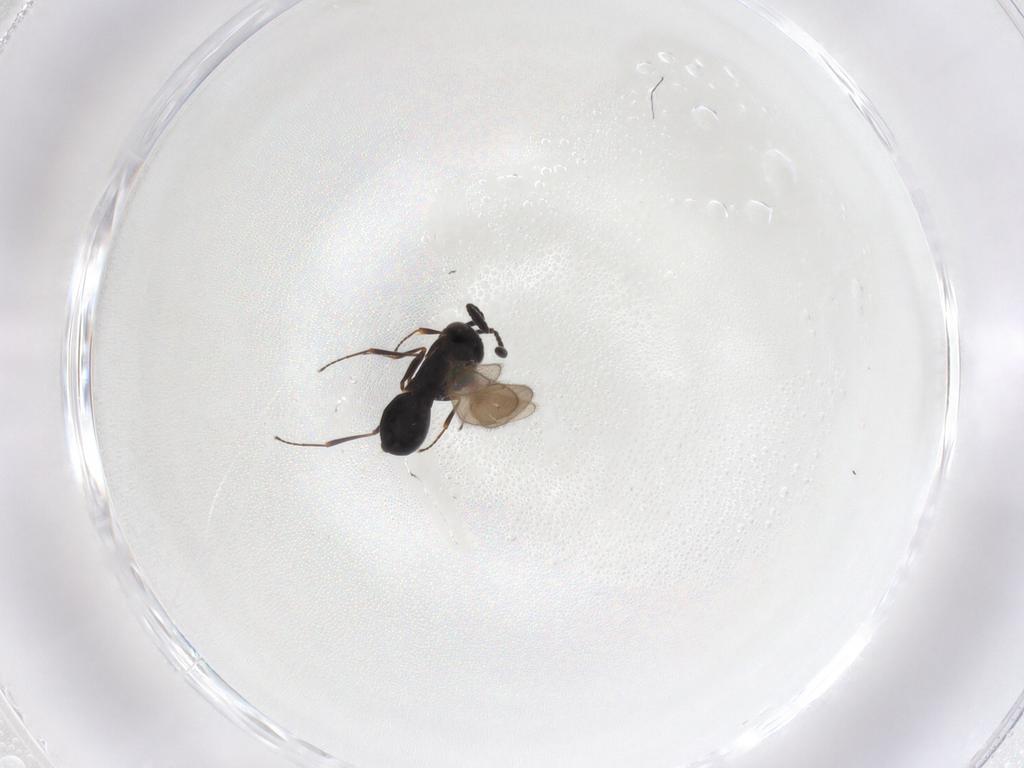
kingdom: Animalia
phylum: Arthropoda
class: Insecta
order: Hymenoptera
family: Scelionidae
